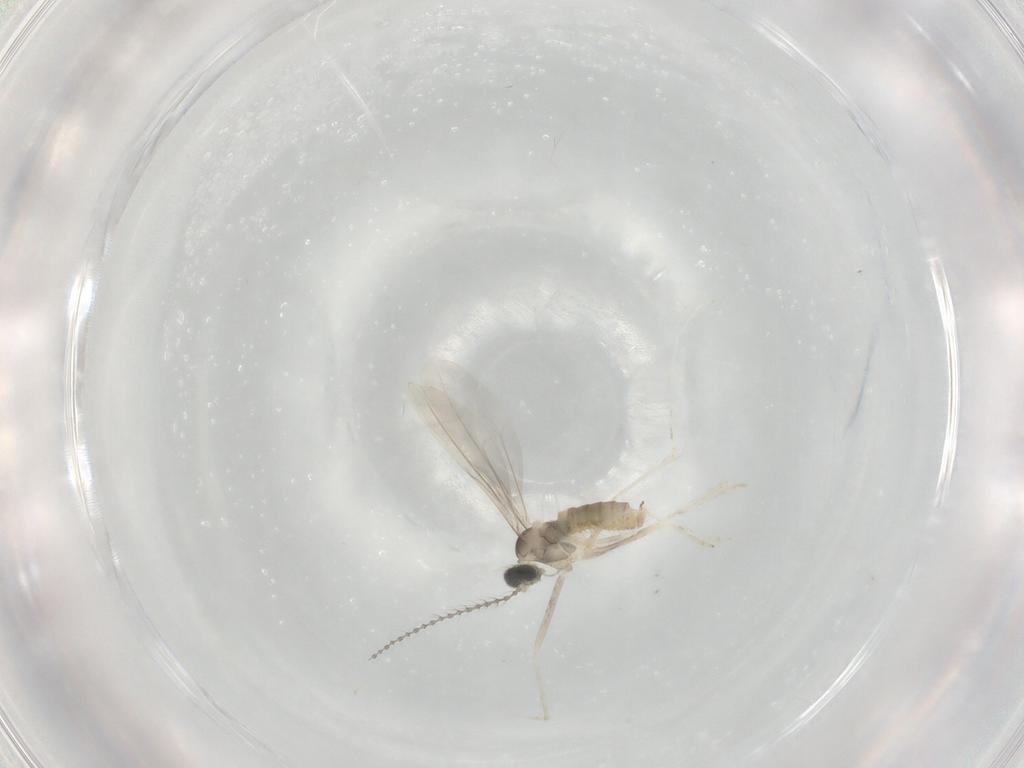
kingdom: Animalia
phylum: Arthropoda
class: Insecta
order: Diptera
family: Cecidomyiidae
